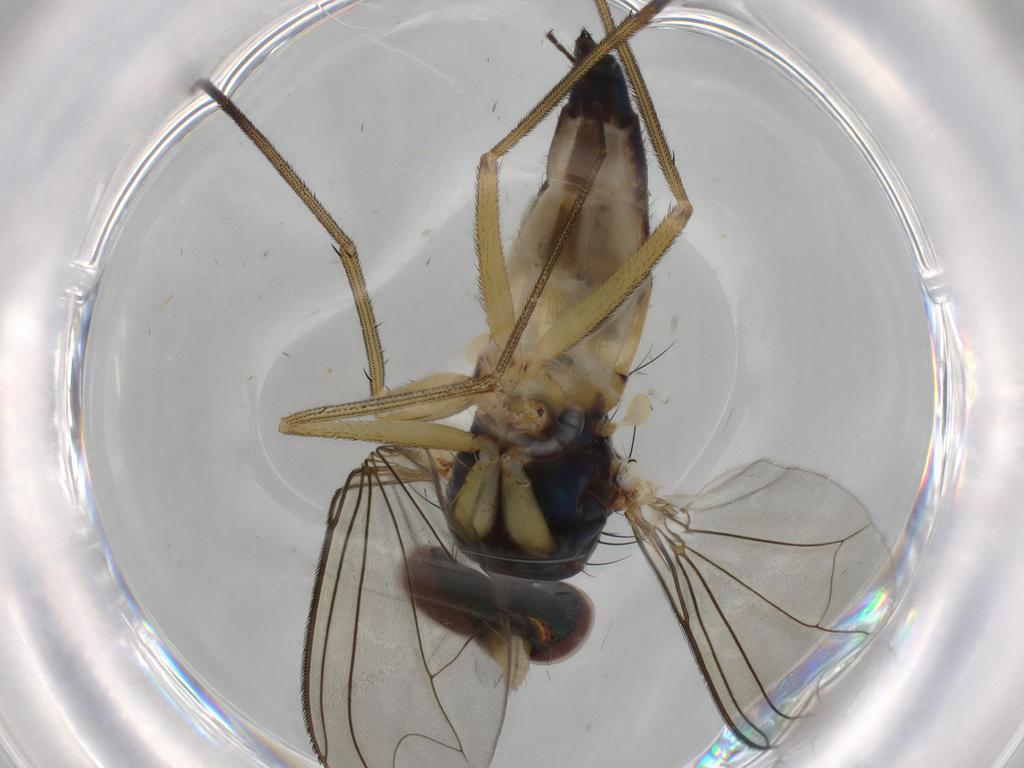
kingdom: Animalia
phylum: Arthropoda
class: Insecta
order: Diptera
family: Dolichopodidae
